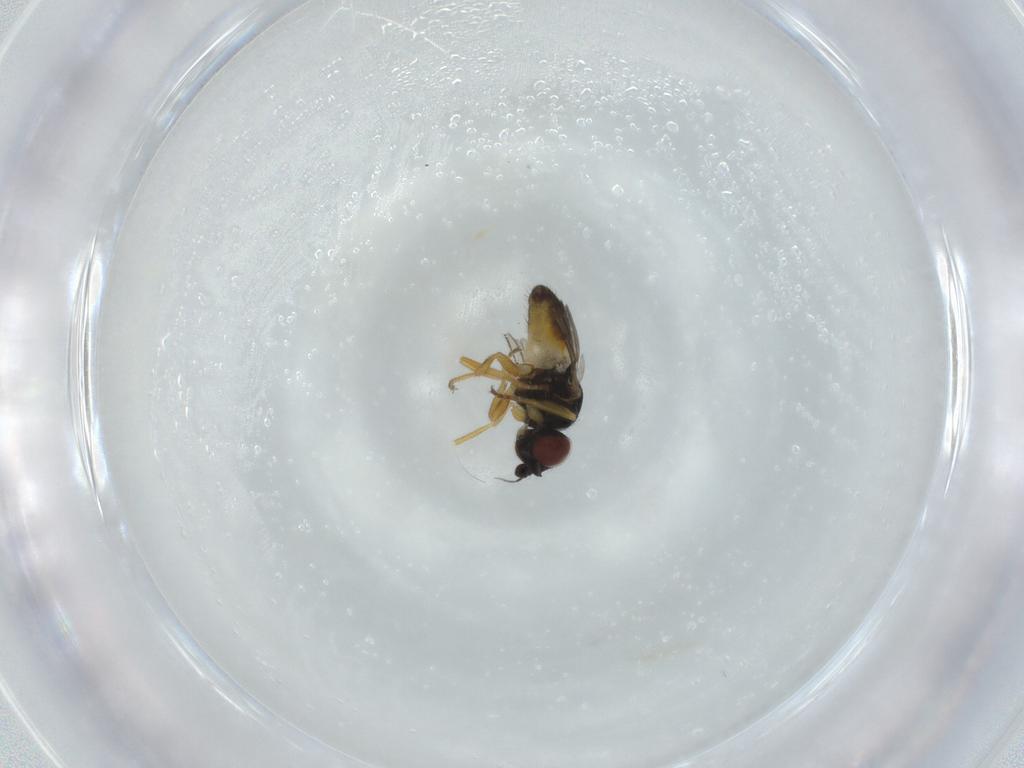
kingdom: Animalia
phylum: Arthropoda
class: Insecta
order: Diptera
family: Chloropidae
